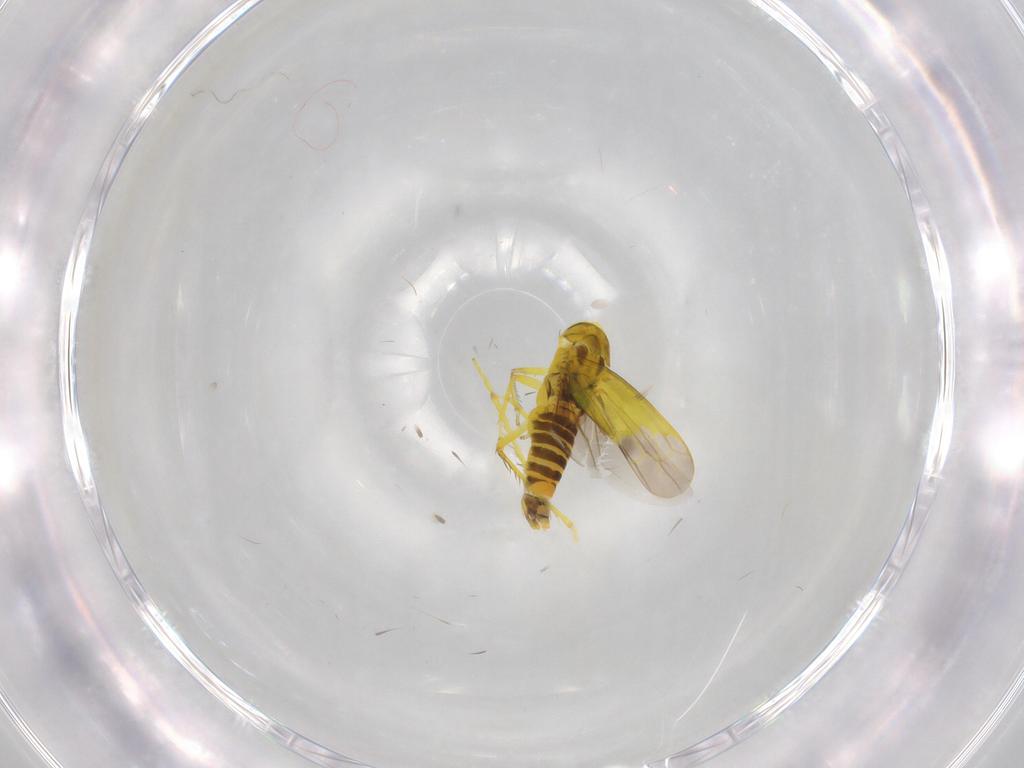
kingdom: Animalia
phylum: Arthropoda
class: Insecta
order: Hemiptera
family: Cicadellidae
